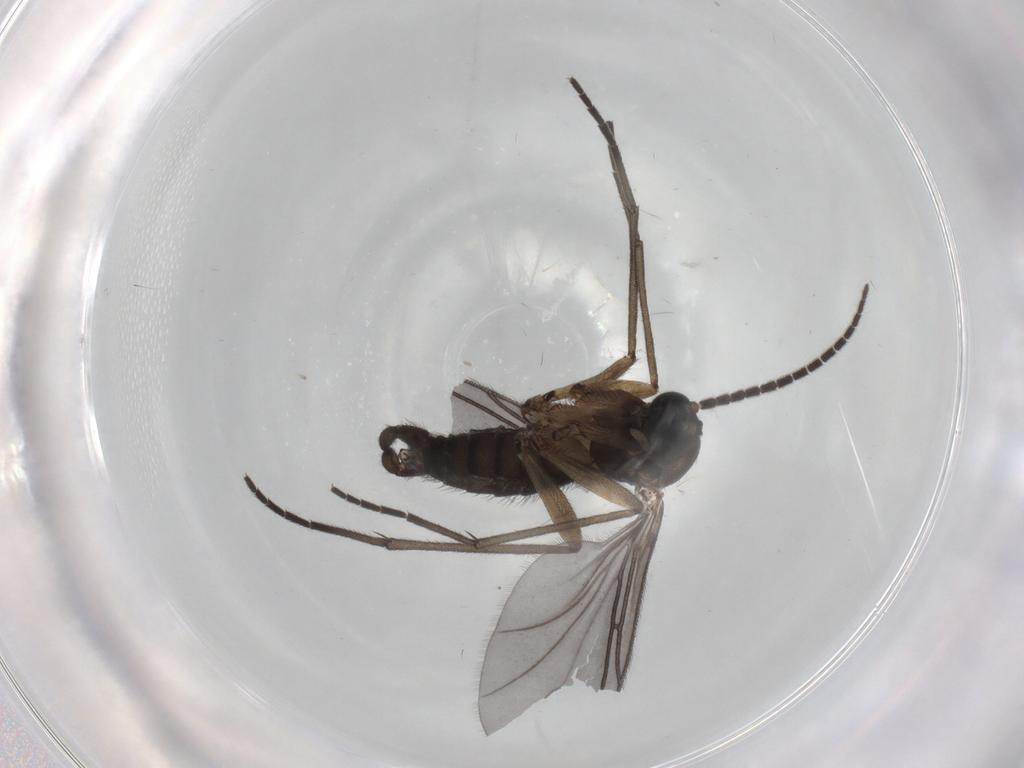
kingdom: Animalia
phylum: Arthropoda
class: Insecta
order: Diptera
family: Sciaridae
